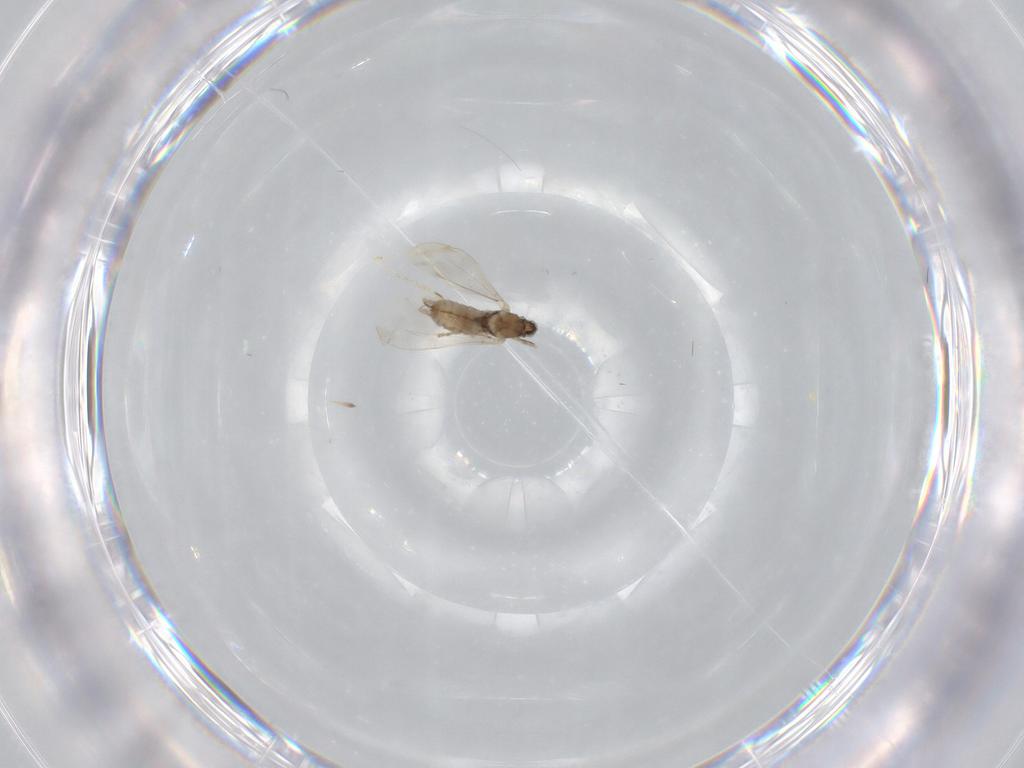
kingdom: Animalia
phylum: Arthropoda
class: Insecta
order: Diptera
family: Cecidomyiidae
